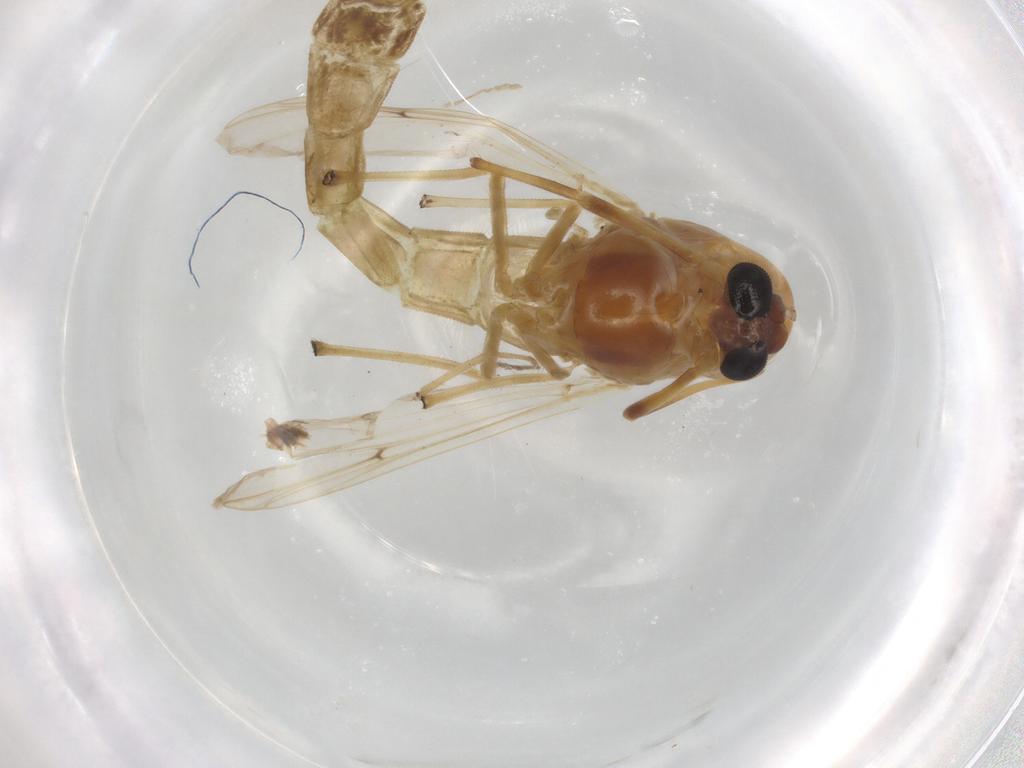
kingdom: Animalia
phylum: Arthropoda
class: Insecta
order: Diptera
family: Chironomidae
